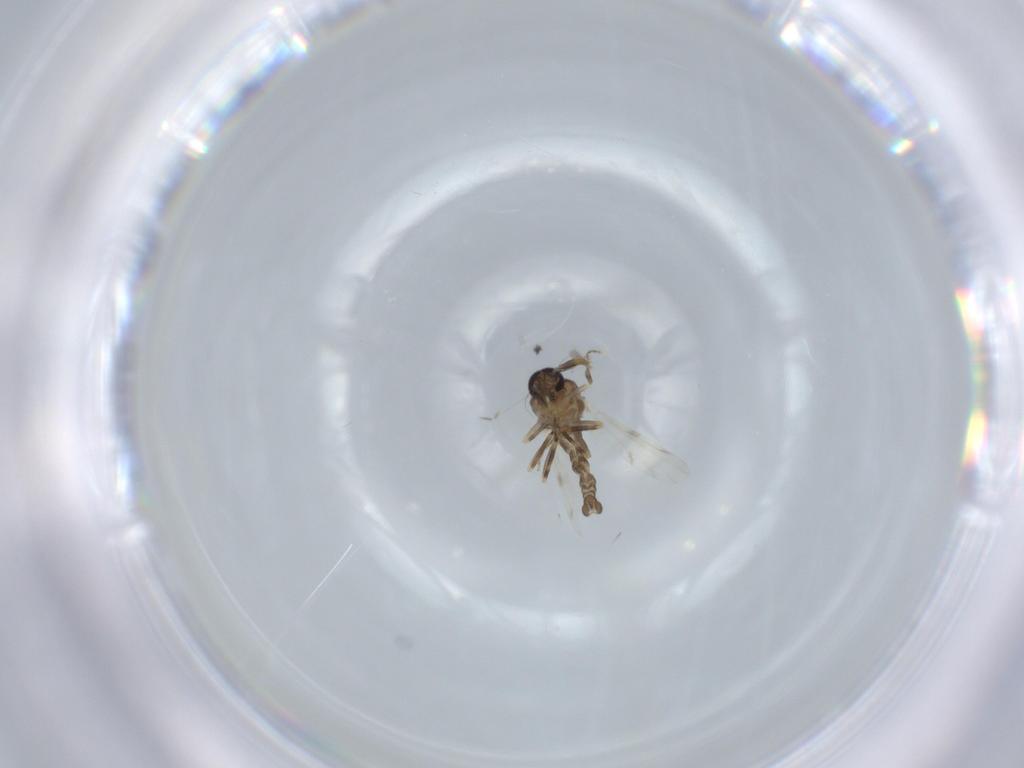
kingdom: Animalia
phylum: Arthropoda
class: Insecta
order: Diptera
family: Ceratopogonidae
